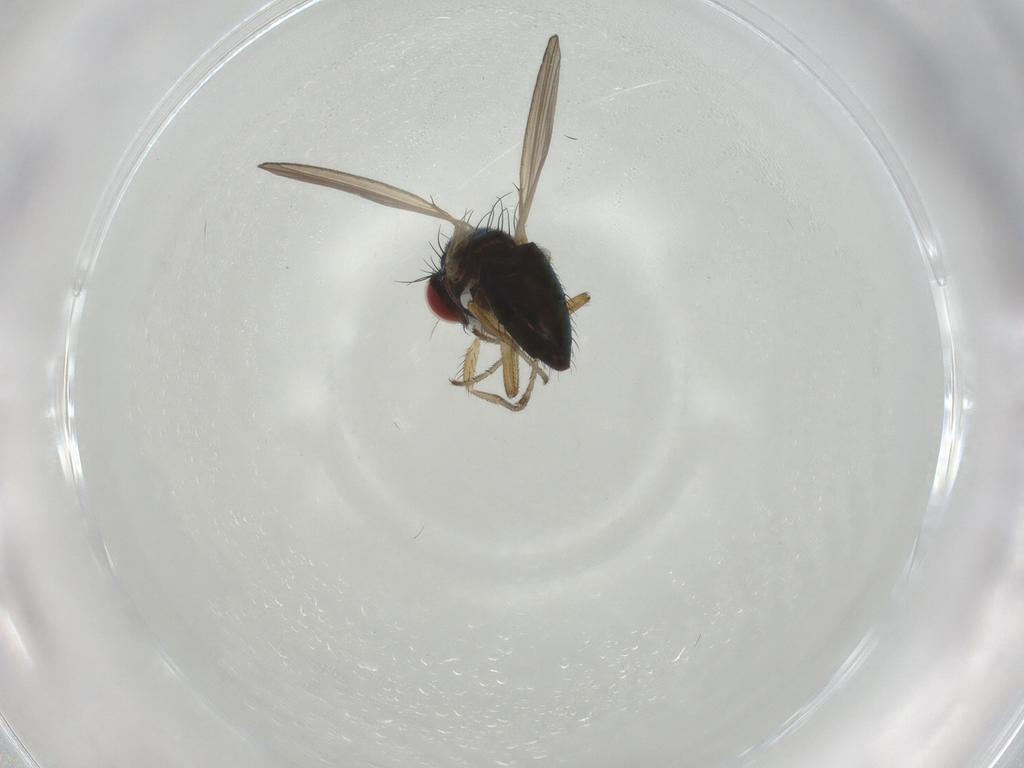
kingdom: Animalia
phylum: Arthropoda
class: Insecta
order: Diptera
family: Camillidae
